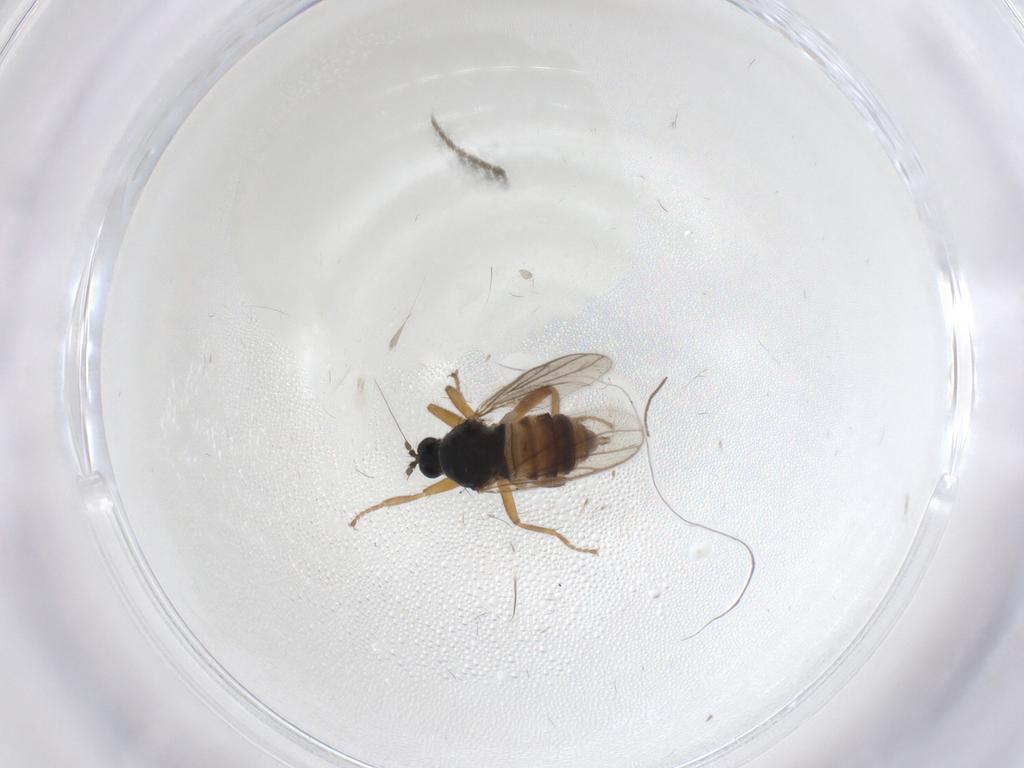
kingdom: Animalia
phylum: Arthropoda
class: Insecta
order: Diptera
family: Hybotidae
